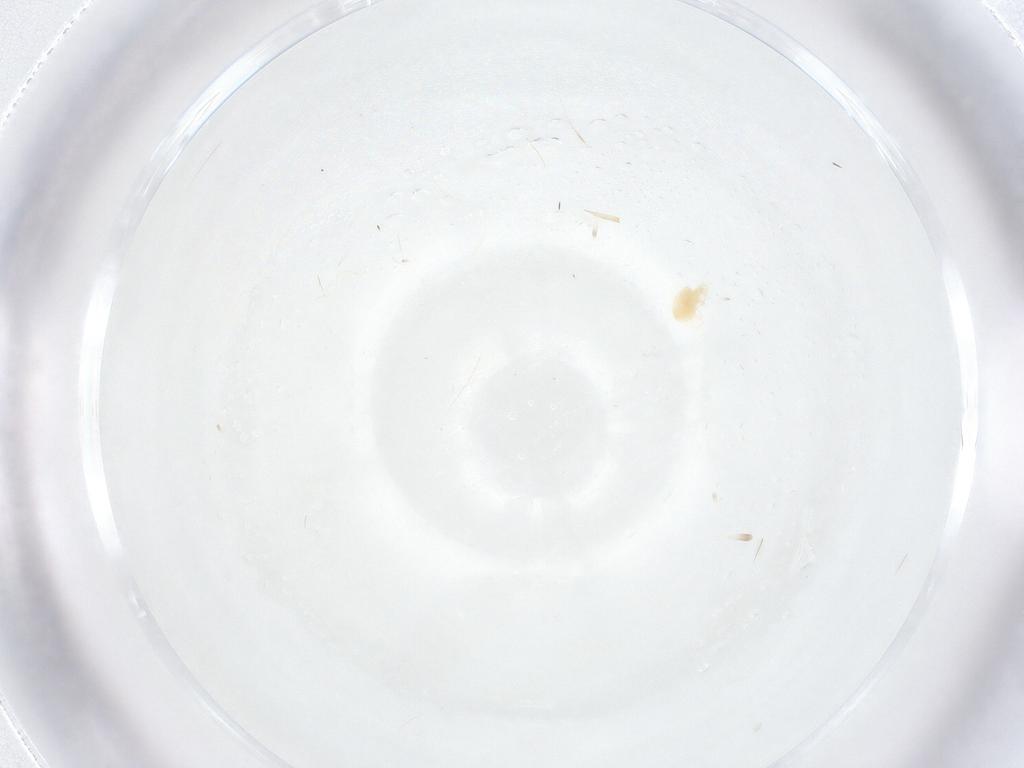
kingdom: Animalia
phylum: Arthropoda
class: Arachnida
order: Trombidiformes
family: Tetranychidae
